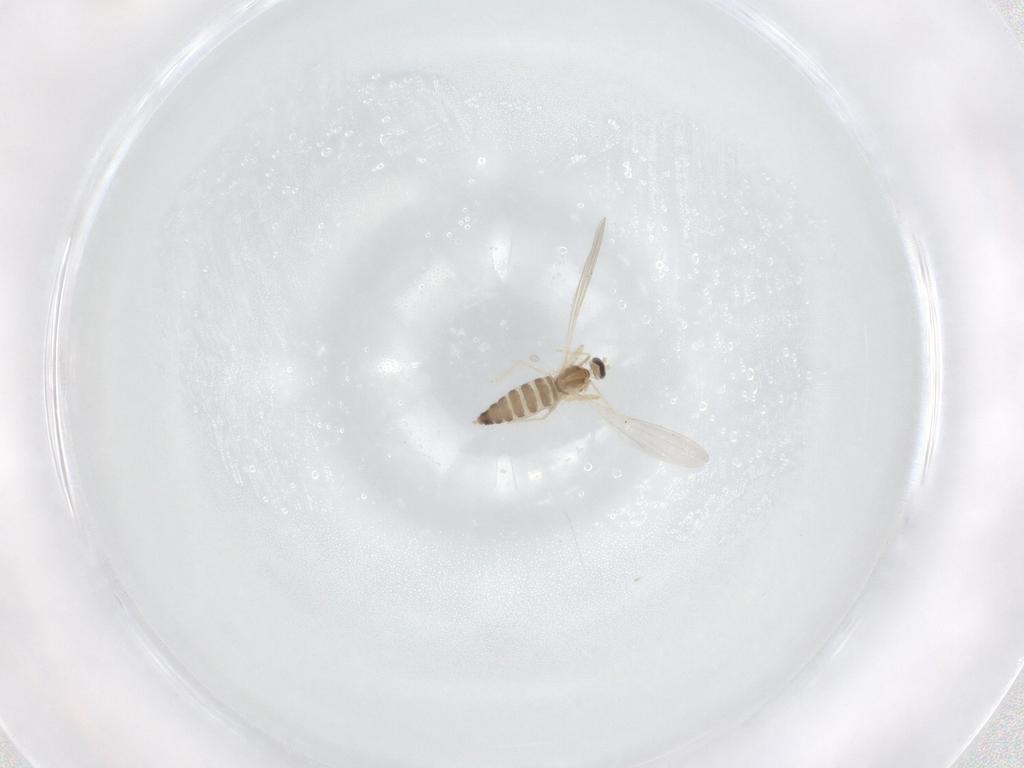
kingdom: Animalia
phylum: Arthropoda
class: Insecta
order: Diptera
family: Cecidomyiidae
